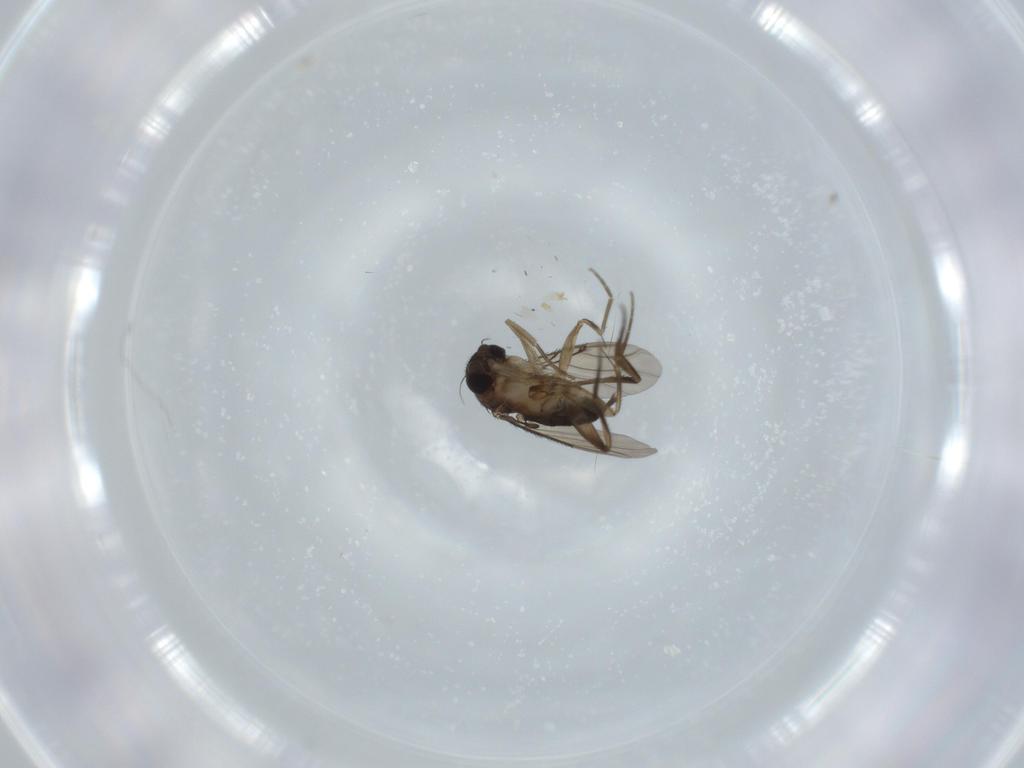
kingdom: Animalia
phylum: Arthropoda
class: Insecta
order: Diptera
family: Phoridae
